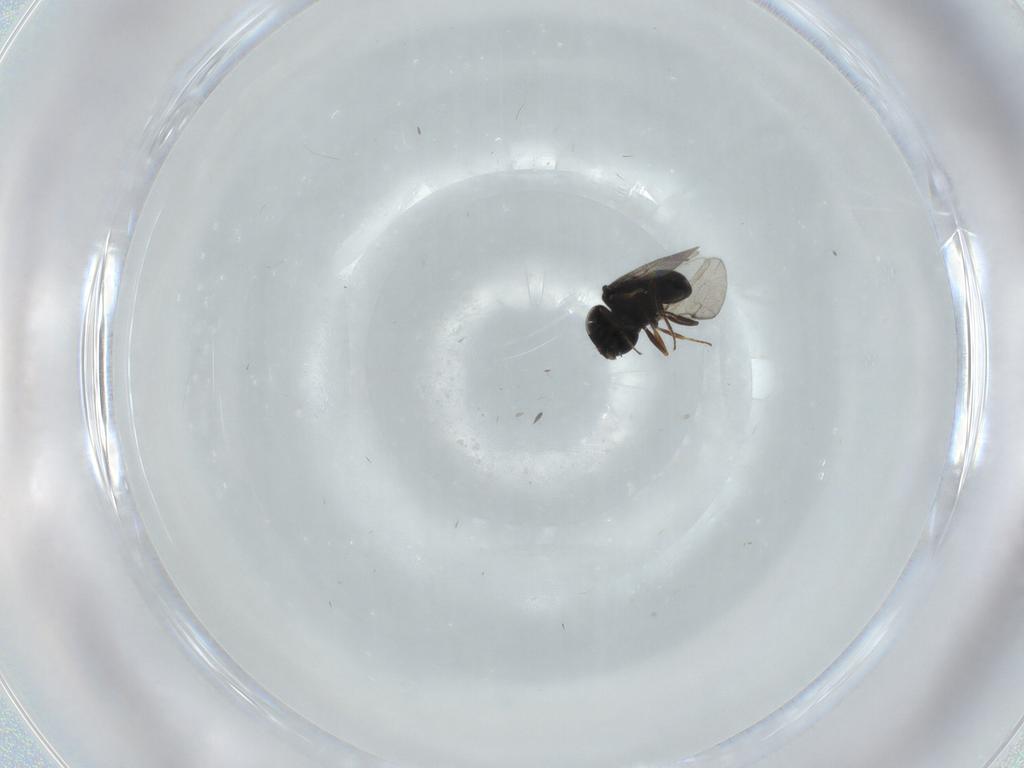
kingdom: Animalia
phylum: Arthropoda
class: Insecta
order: Hymenoptera
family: Scelionidae
